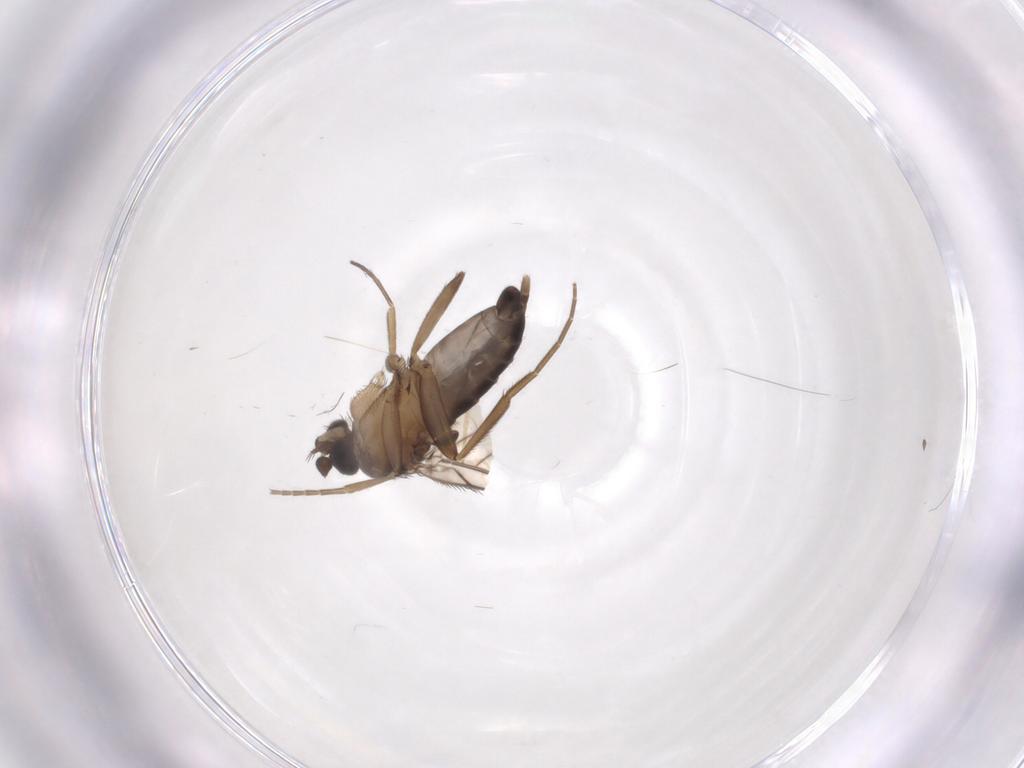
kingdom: Animalia
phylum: Arthropoda
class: Insecta
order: Diptera
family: Phoridae
